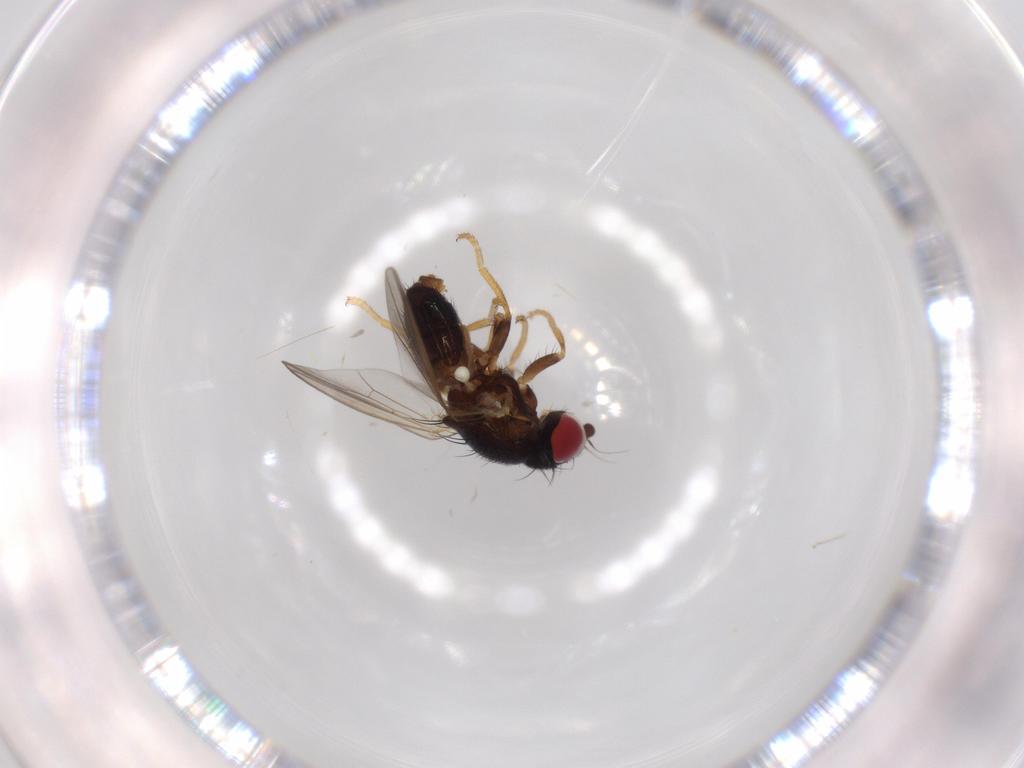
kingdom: Animalia
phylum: Arthropoda
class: Insecta
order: Diptera
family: Chamaemyiidae
